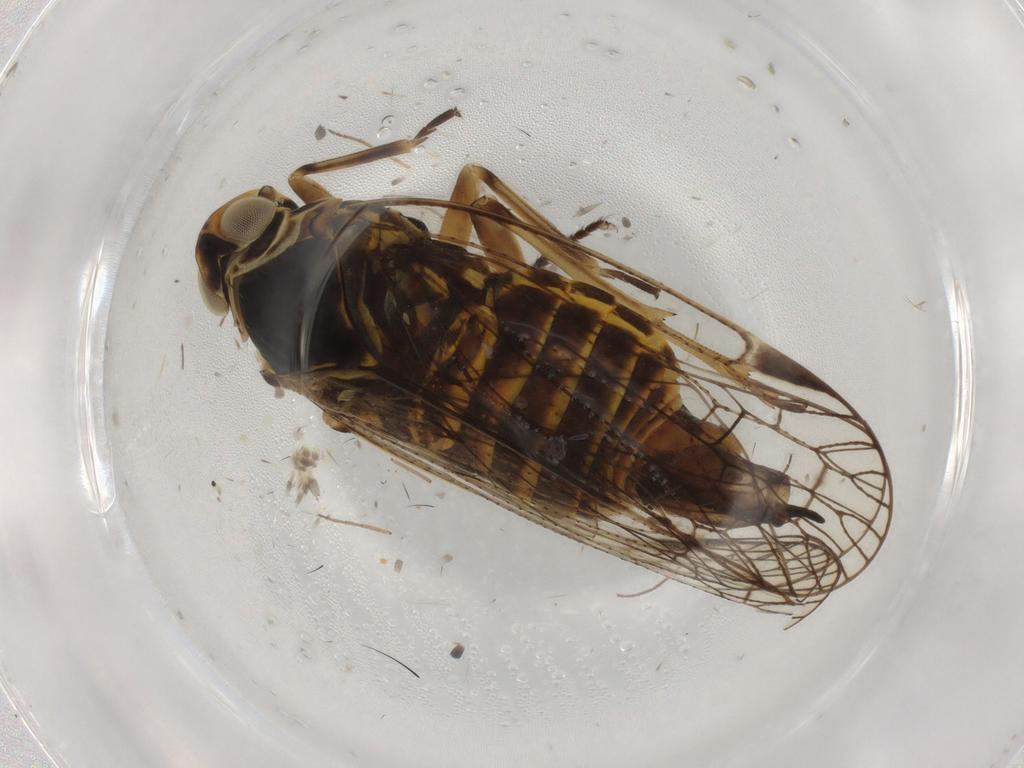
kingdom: Animalia
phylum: Arthropoda
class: Insecta
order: Hemiptera
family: Cixiidae
